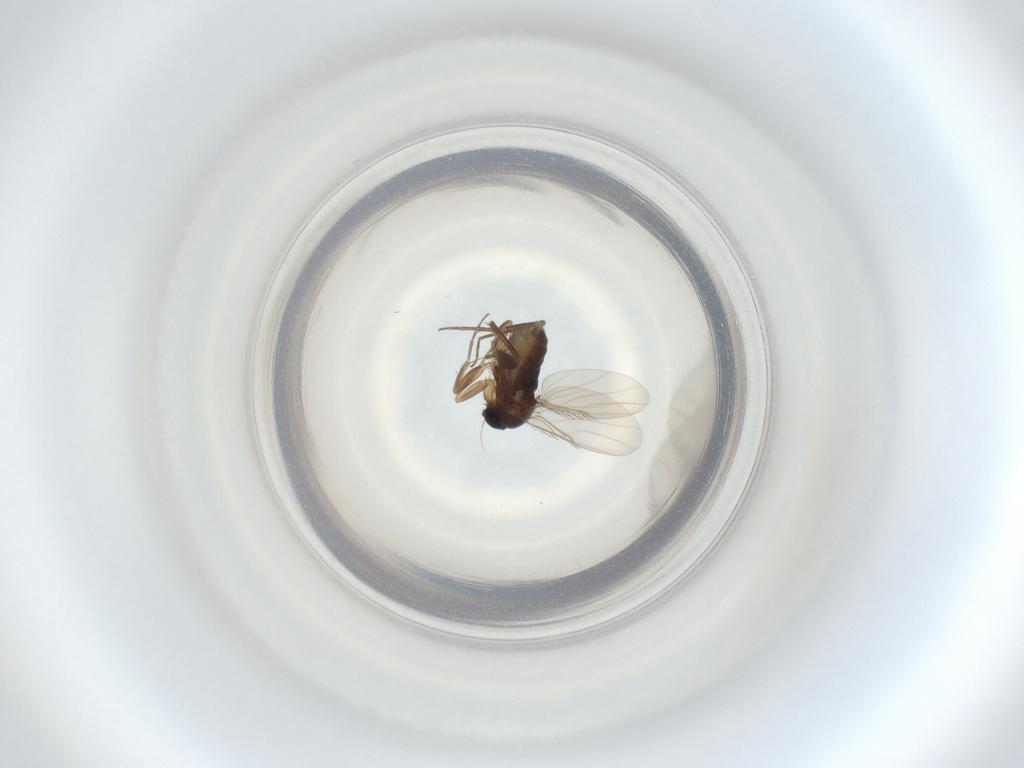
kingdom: Animalia
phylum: Arthropoda
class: Insecta
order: Diptera
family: Phoridae
